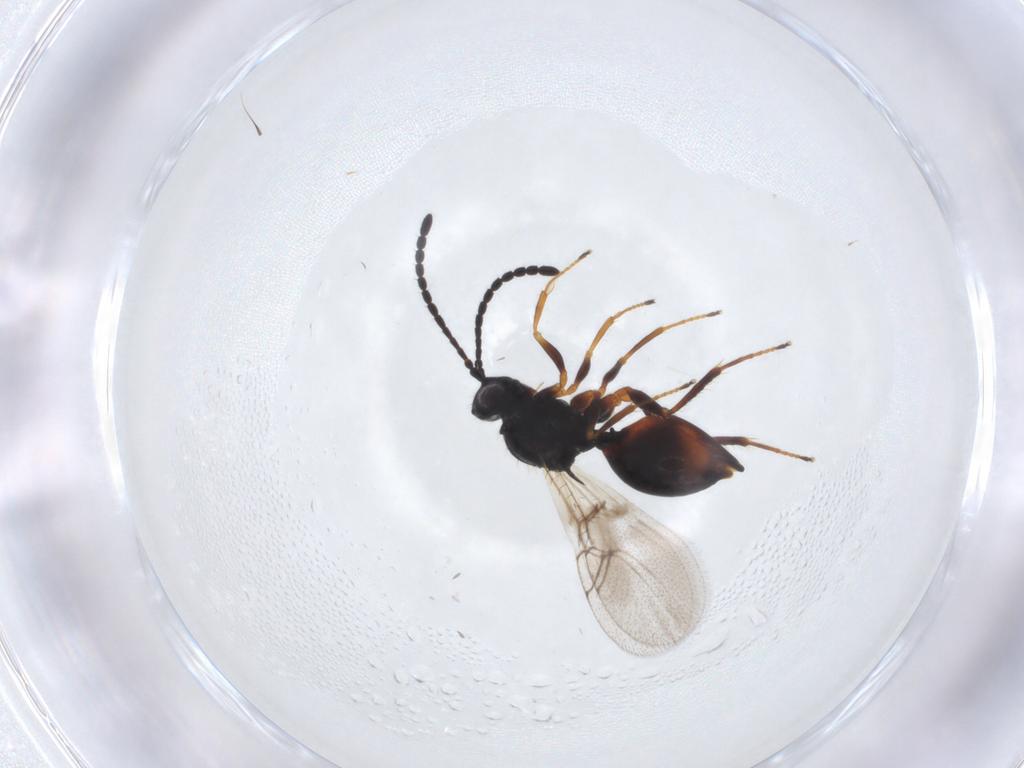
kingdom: Animalia
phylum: Arthropoda
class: Insecta
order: Hymenoptera
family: Figitidae
